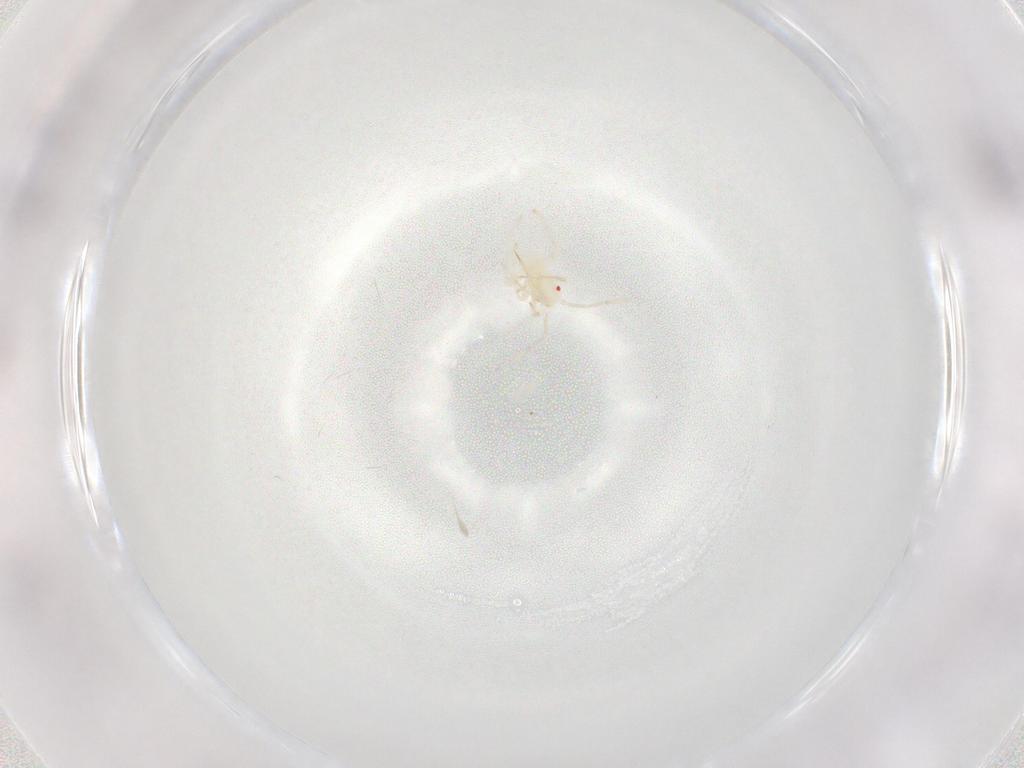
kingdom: Animalia
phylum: Arthropoda
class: Insecta
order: Hemiptera
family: Miridae
